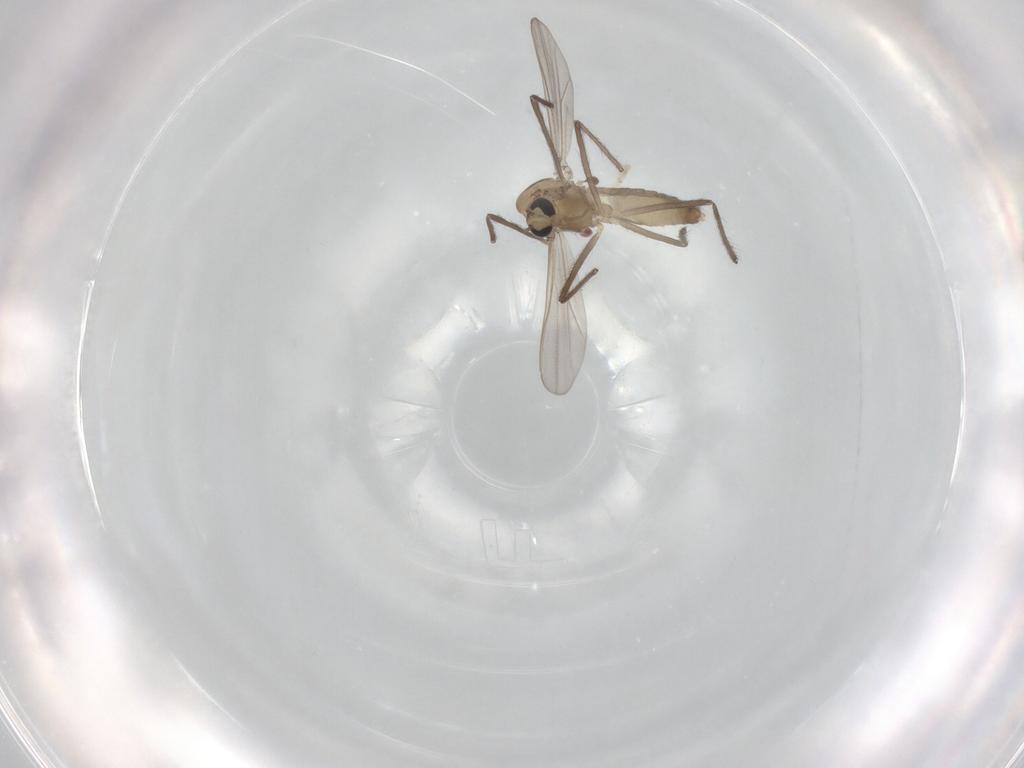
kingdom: Animalia
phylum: Arthropoda
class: Insecta
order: Diptera
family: Chironomidae
